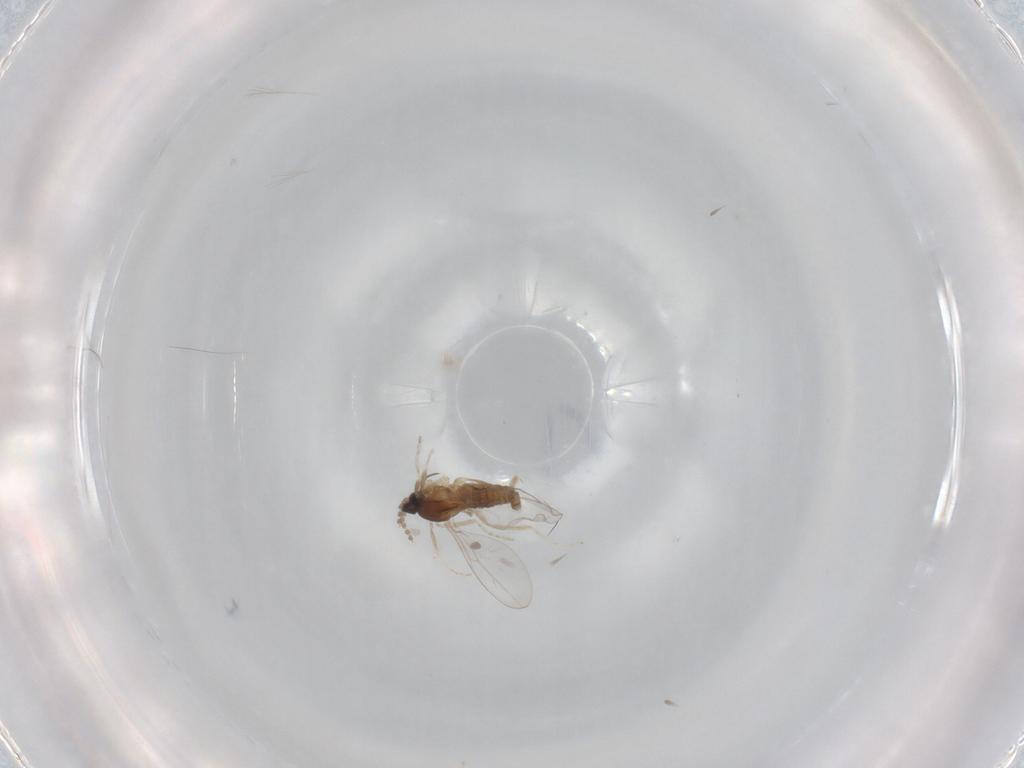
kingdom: Animalia
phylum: Arthropoda
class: Insecta
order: Diptera
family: Cecidomyiidae
